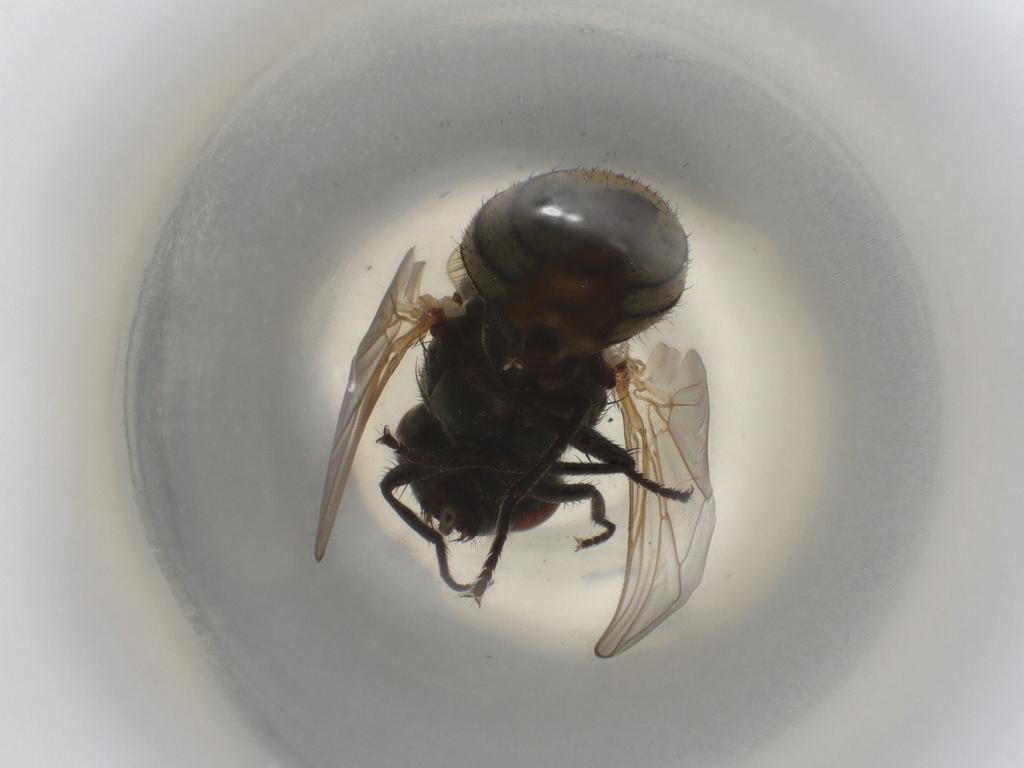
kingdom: Animalia
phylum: Arthropoda
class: Insecta
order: Diptera
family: Muscidae
